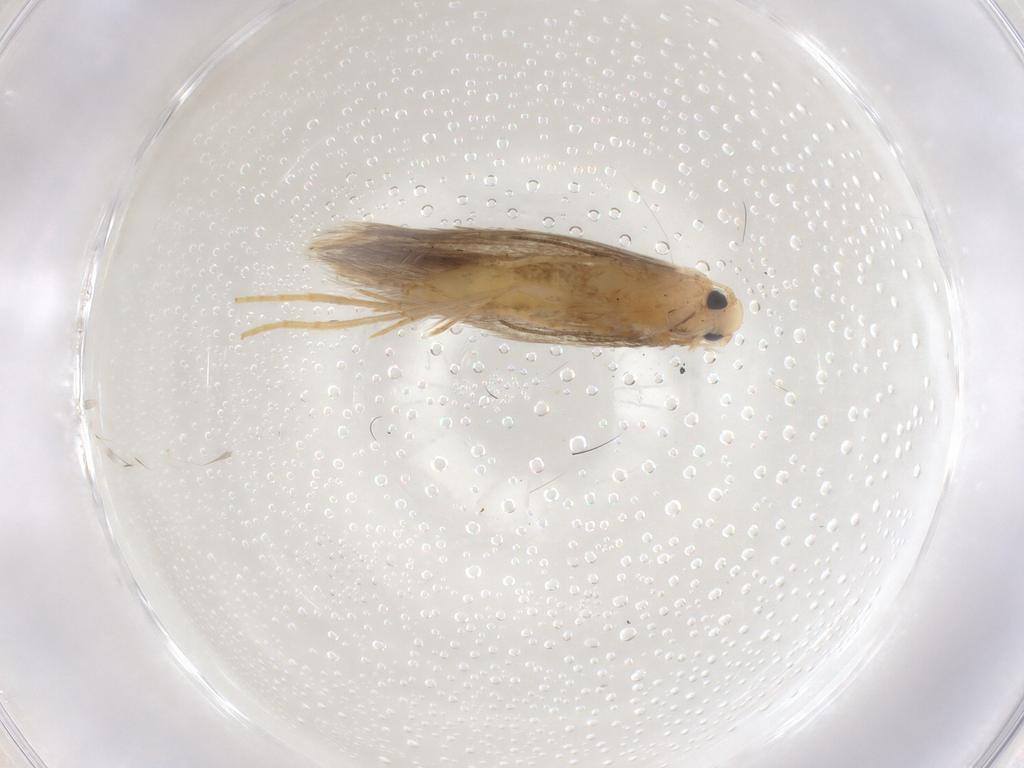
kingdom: Animalia
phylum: Arthropoda
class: Insecta
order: Lepidoptera
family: Tischeriidae
